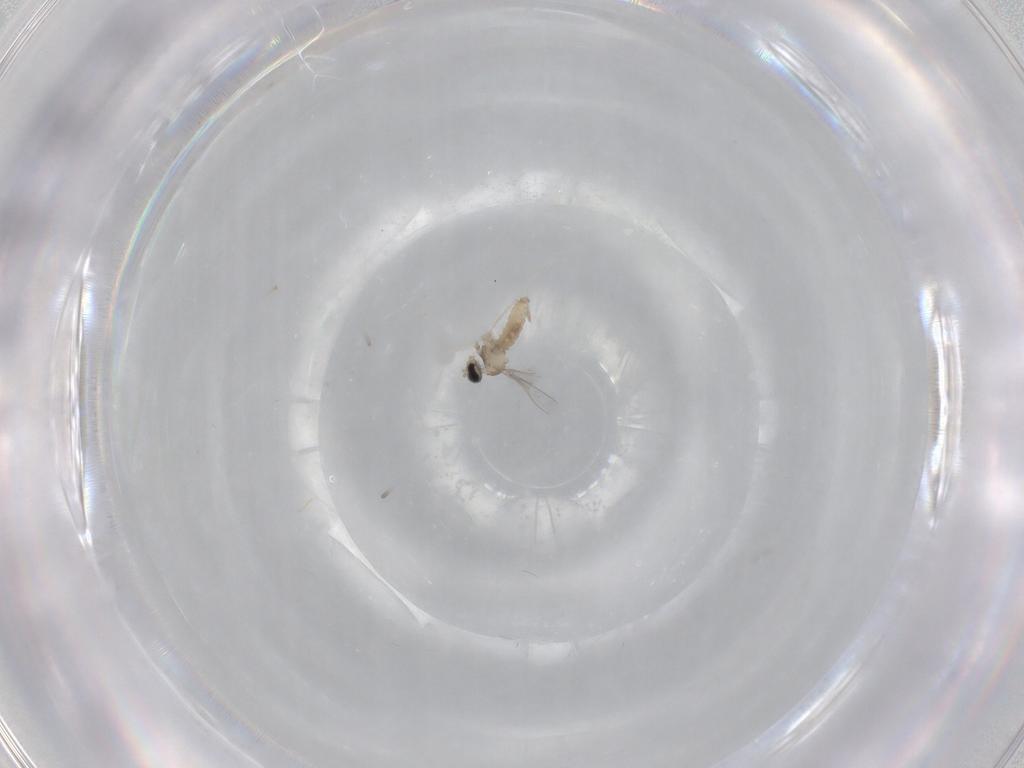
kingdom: Animalia
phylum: Arthropoda
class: Insecta
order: Diptera
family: Cecidomyiidae
